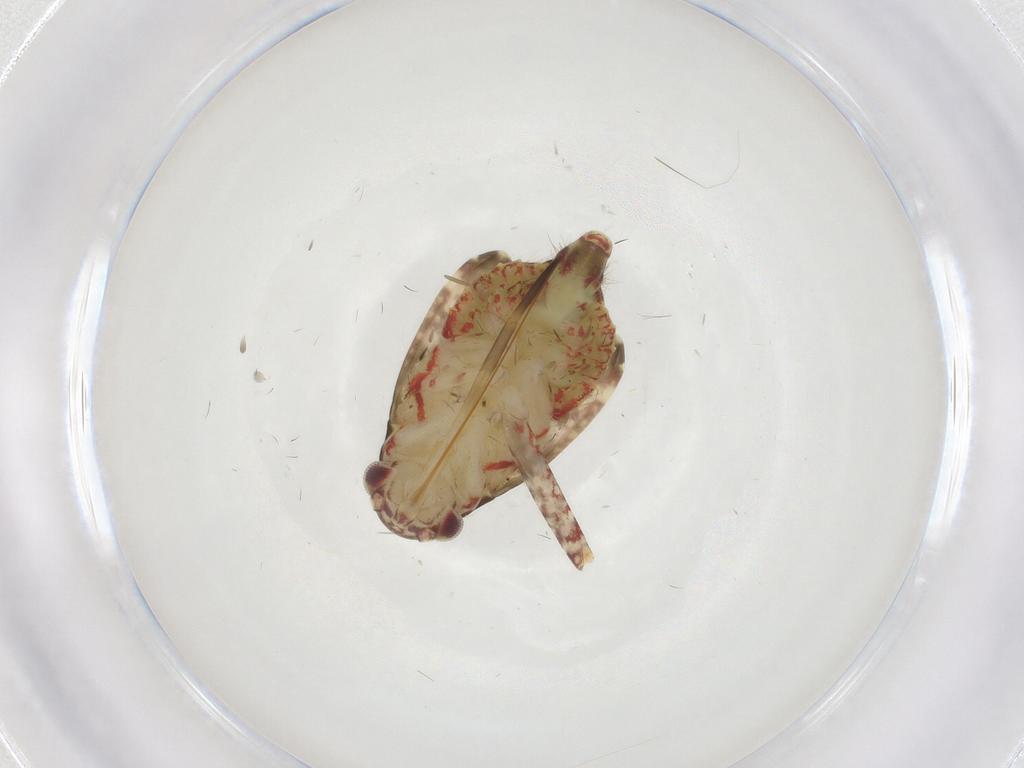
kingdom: Animalia
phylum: Arthropoda
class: Insecta
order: Hemiptera
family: Miridae
